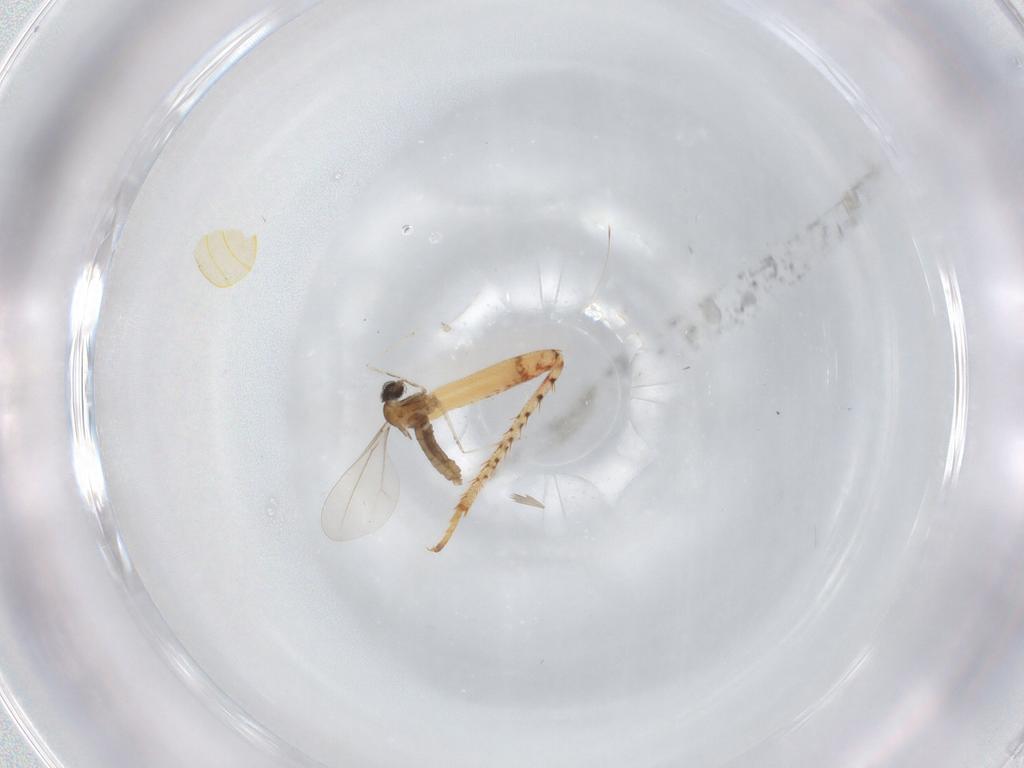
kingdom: Animalia
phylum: Arthropoda
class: Insecta
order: Diptera
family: Cecidomyiidae
